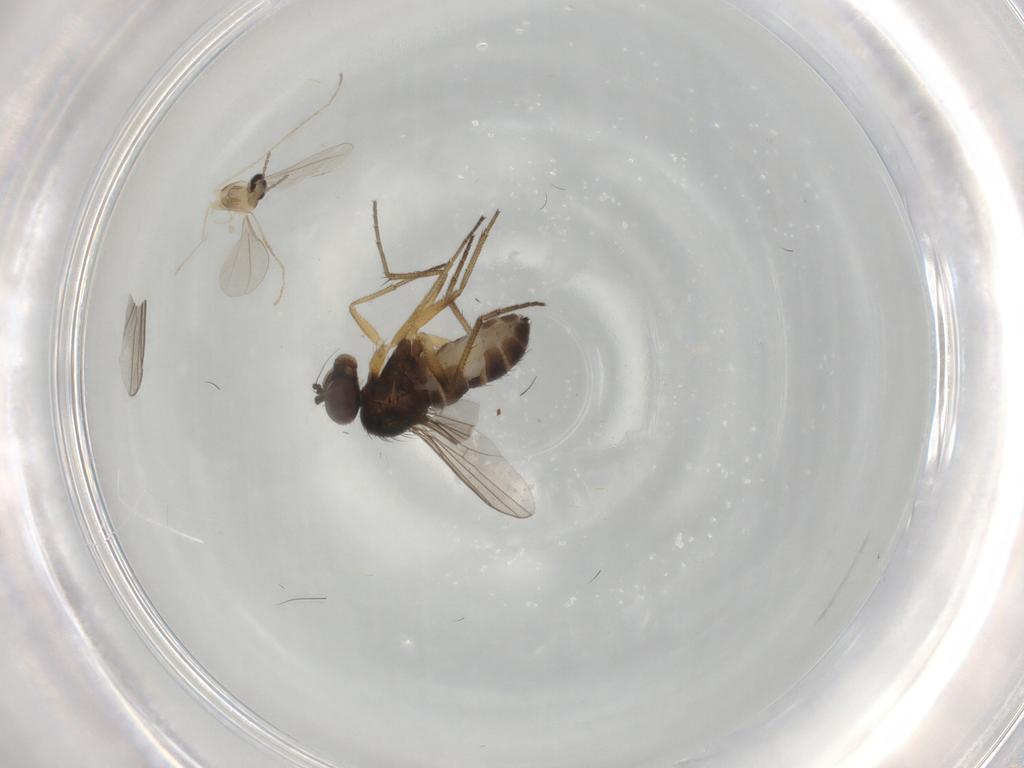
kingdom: Animalia
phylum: Arthropoda
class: Insecta
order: Diptera
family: Dolichopodidae
